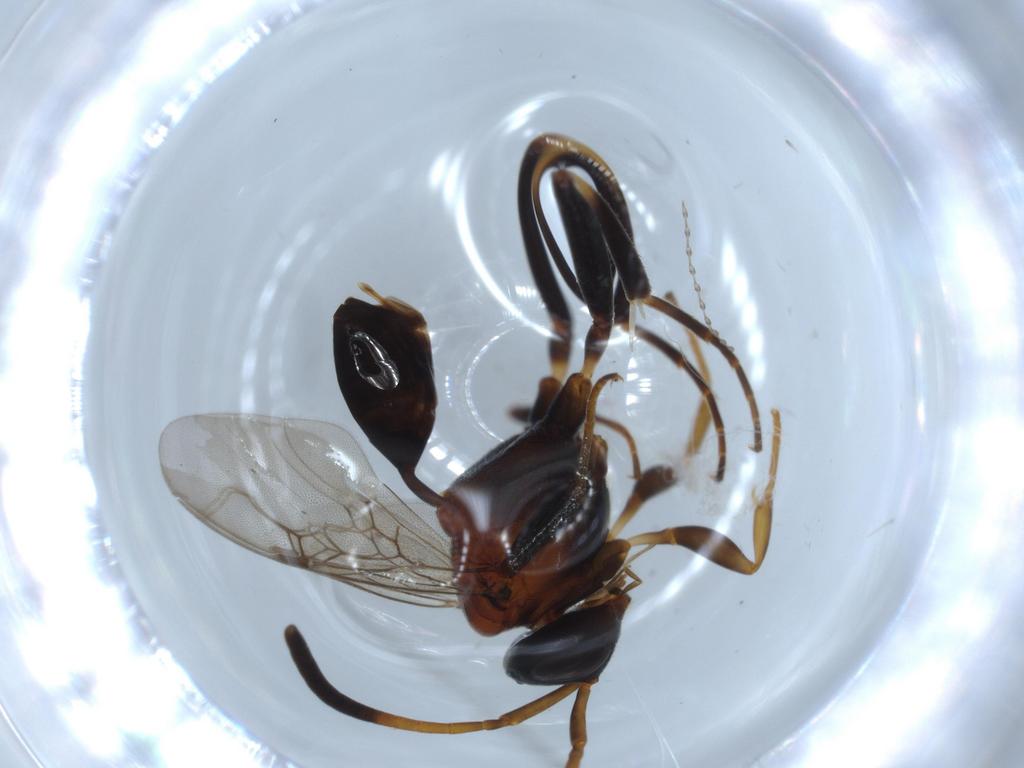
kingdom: Animalia
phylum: Arthropoda
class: Insecta
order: Hymenoptera
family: Evaniidae
